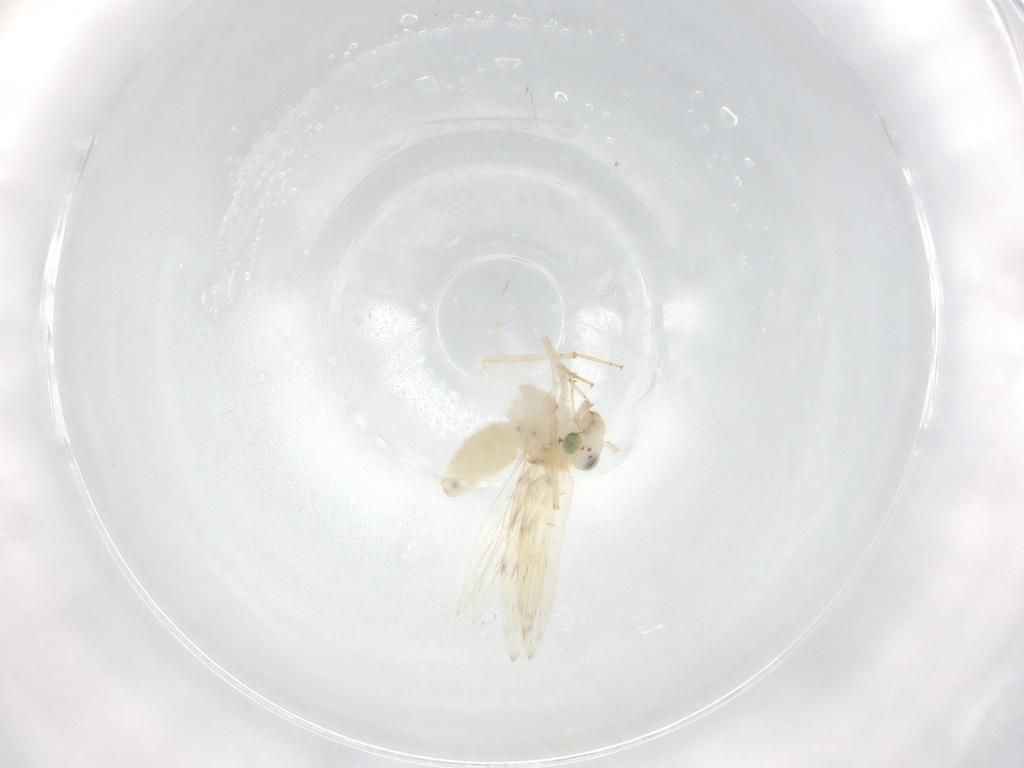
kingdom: Animalia
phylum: Arthropoda
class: Insecta
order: Psocodea
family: Lepidopsocidae
